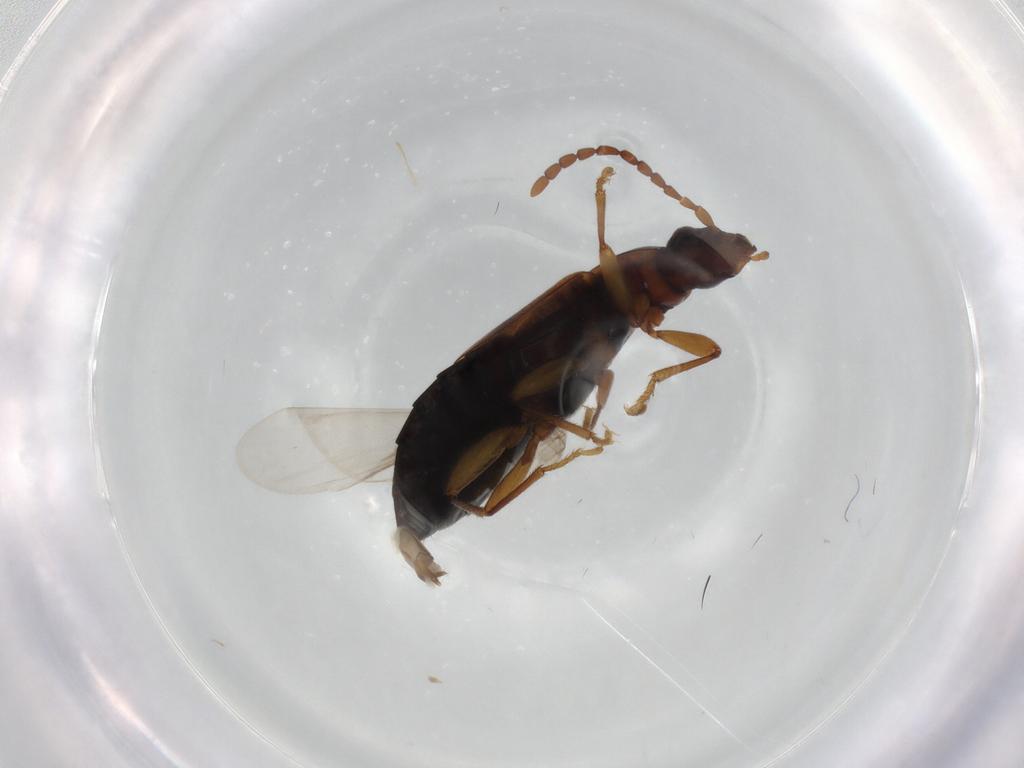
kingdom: Animalia
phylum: Arthropoda
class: Insecta
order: Coleoptera
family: Staphylinidae
